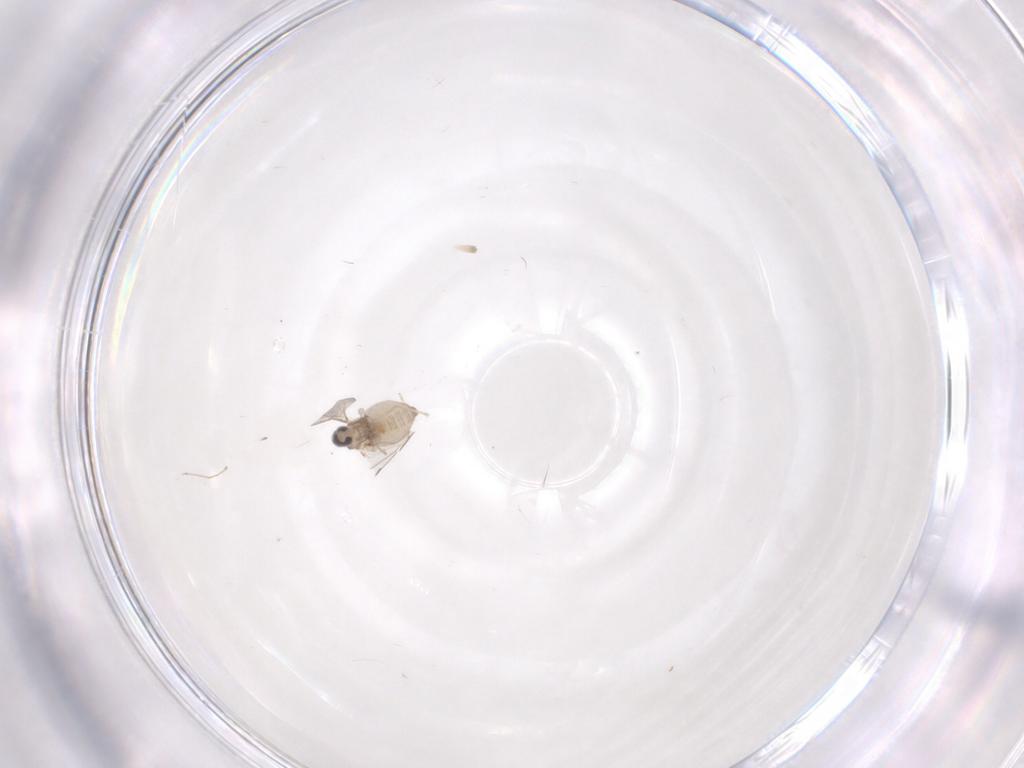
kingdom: Animalia
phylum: Arthropoda
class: Insecta
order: Diptera
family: Cecidomyiidae
